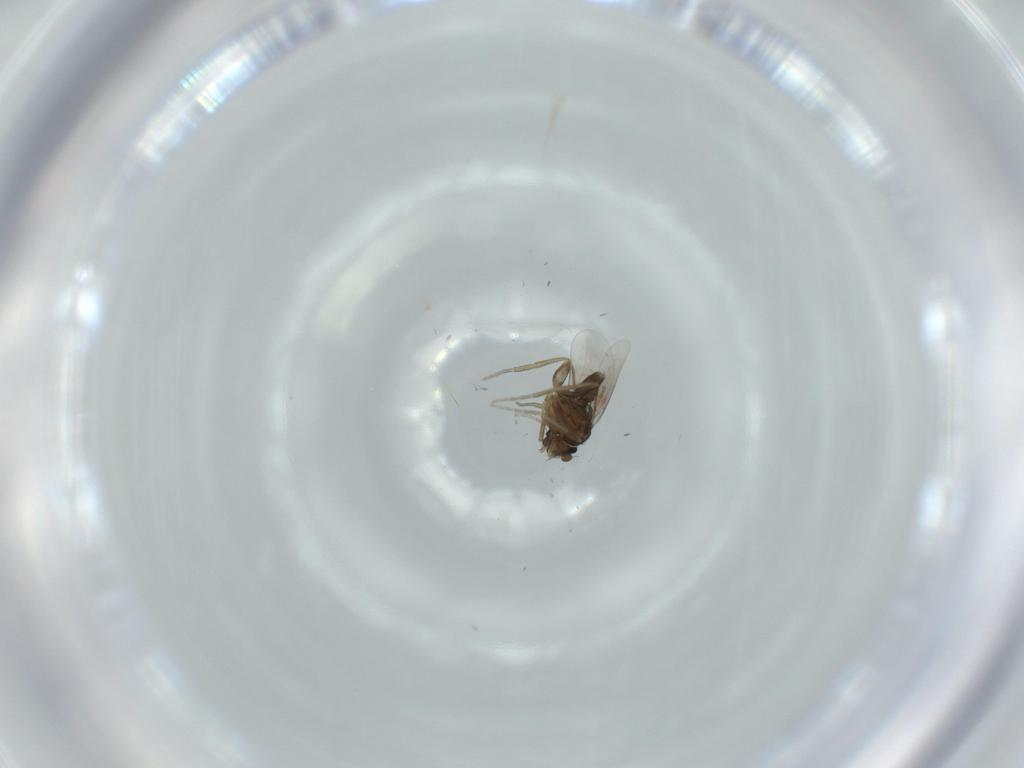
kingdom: Animalia
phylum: Arthropoda
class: Insecta
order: Diptera
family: Phoridae
